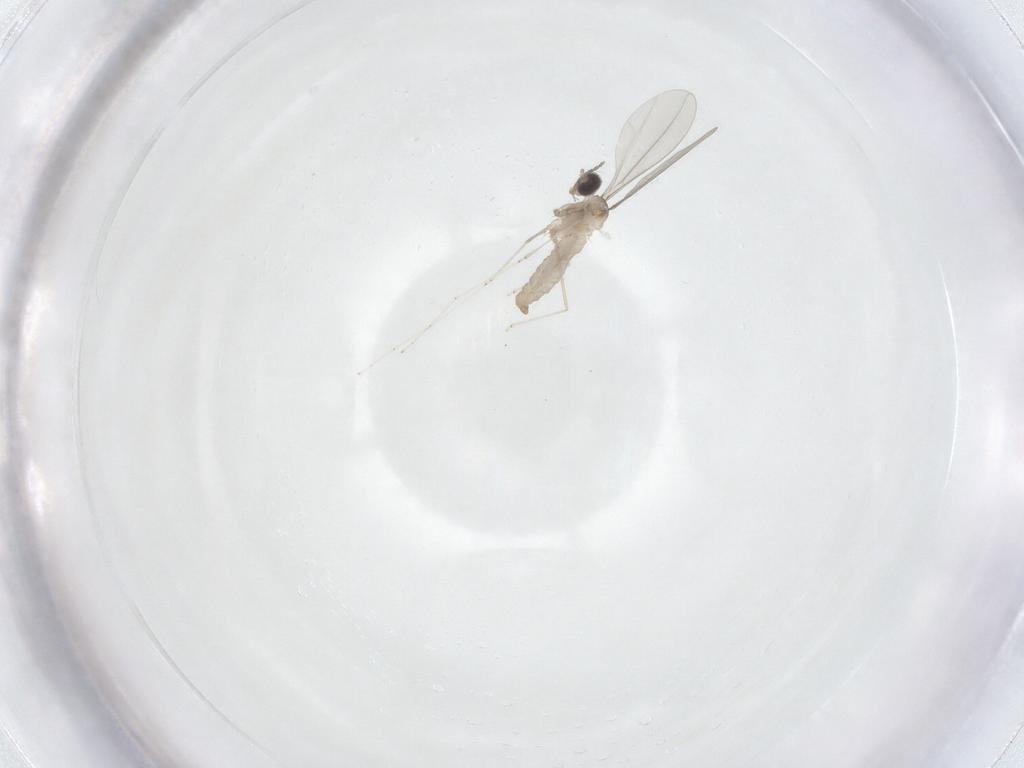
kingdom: Animalia
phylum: Arthropoda
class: Insecta
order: Diptera
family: Cecidomyiidae
